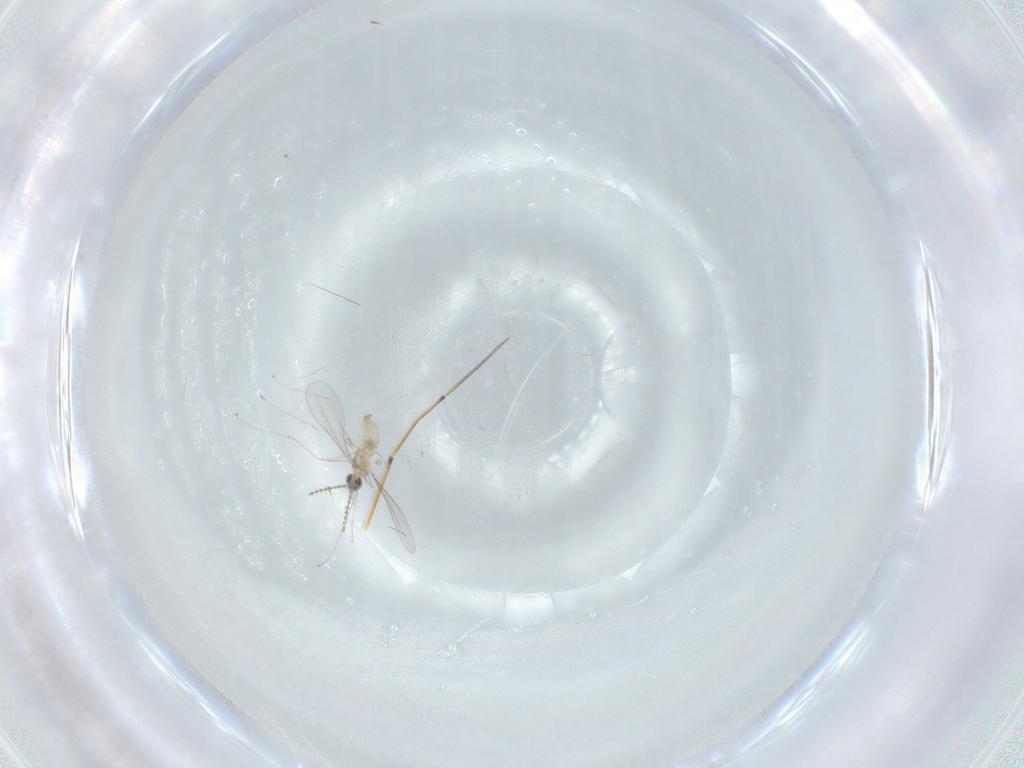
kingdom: Animalia
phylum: Arthropoda
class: Insecta
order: Diptera
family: Cecidomyiidae
